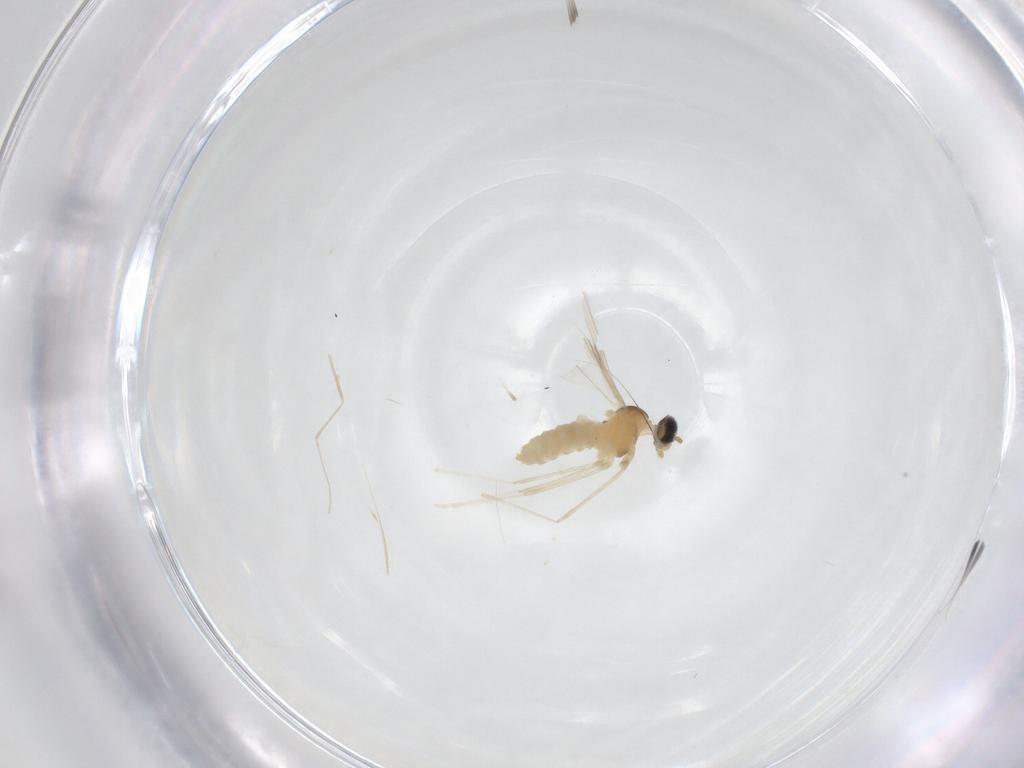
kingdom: Animalia
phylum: Arthropoda
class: Insecta
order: Diptera
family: Cecidomyiidae
